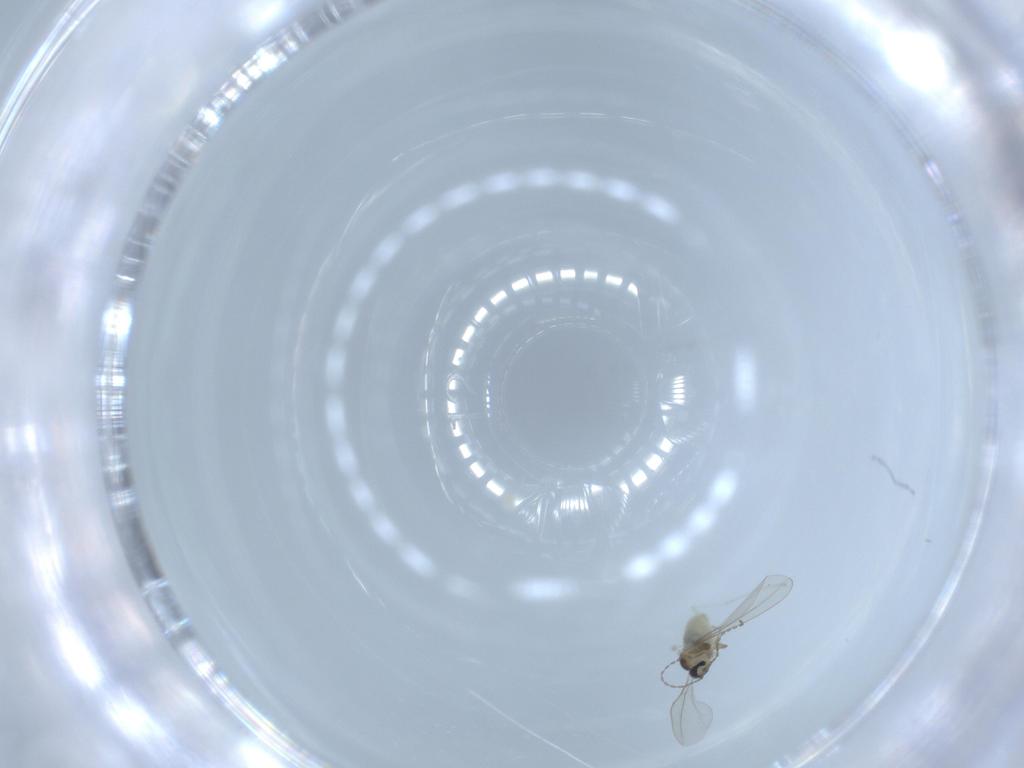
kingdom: Animalia
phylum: Arthropoda
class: Insecta
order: Diptera
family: Cecidomyiidae
